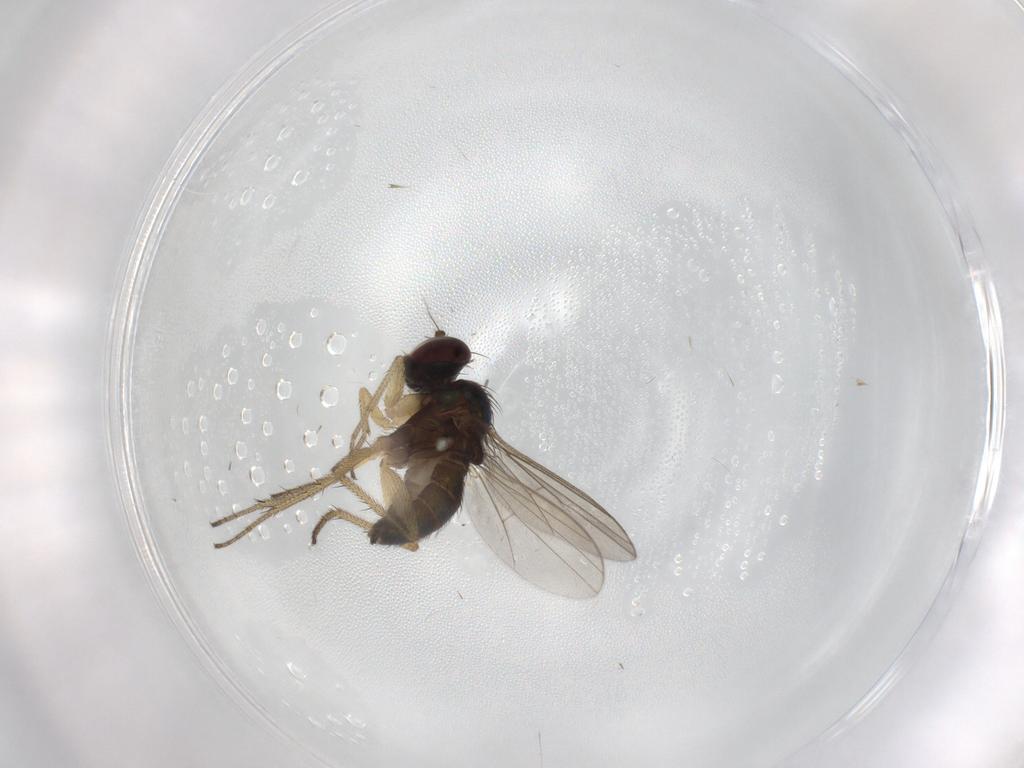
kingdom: Animalia
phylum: Arthropoda
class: Insecta
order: Diptera
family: Dolichopodidae
